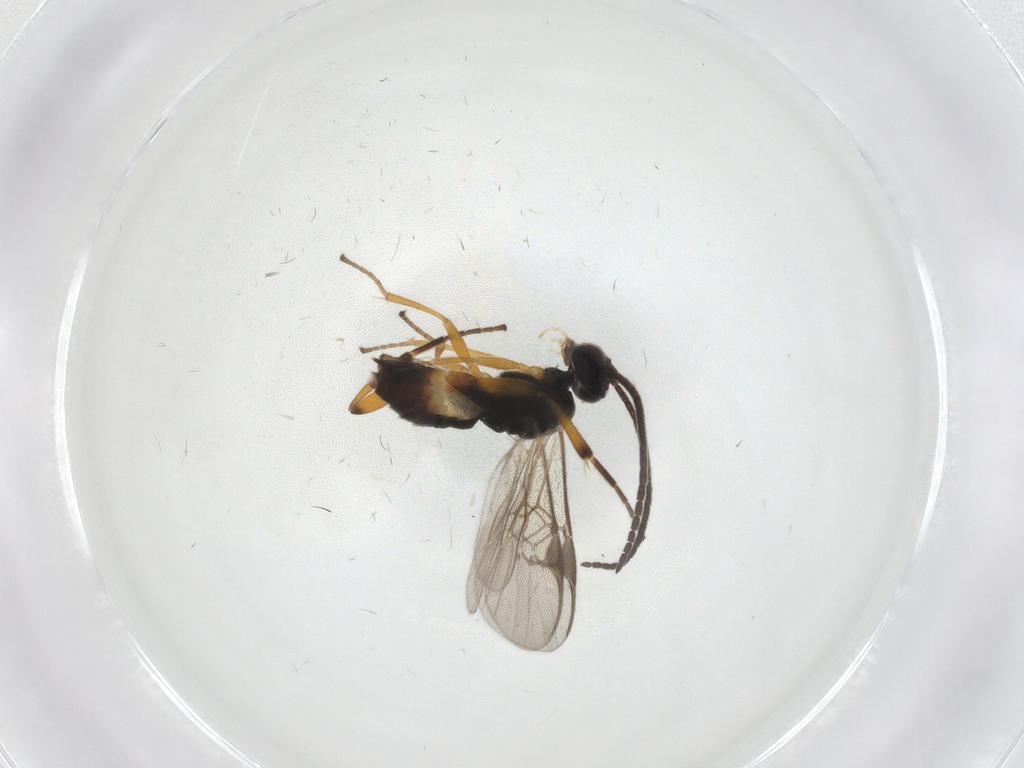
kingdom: Animalia
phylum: Arthropoda
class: Insecta
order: Hymenoptera
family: Braconidae
